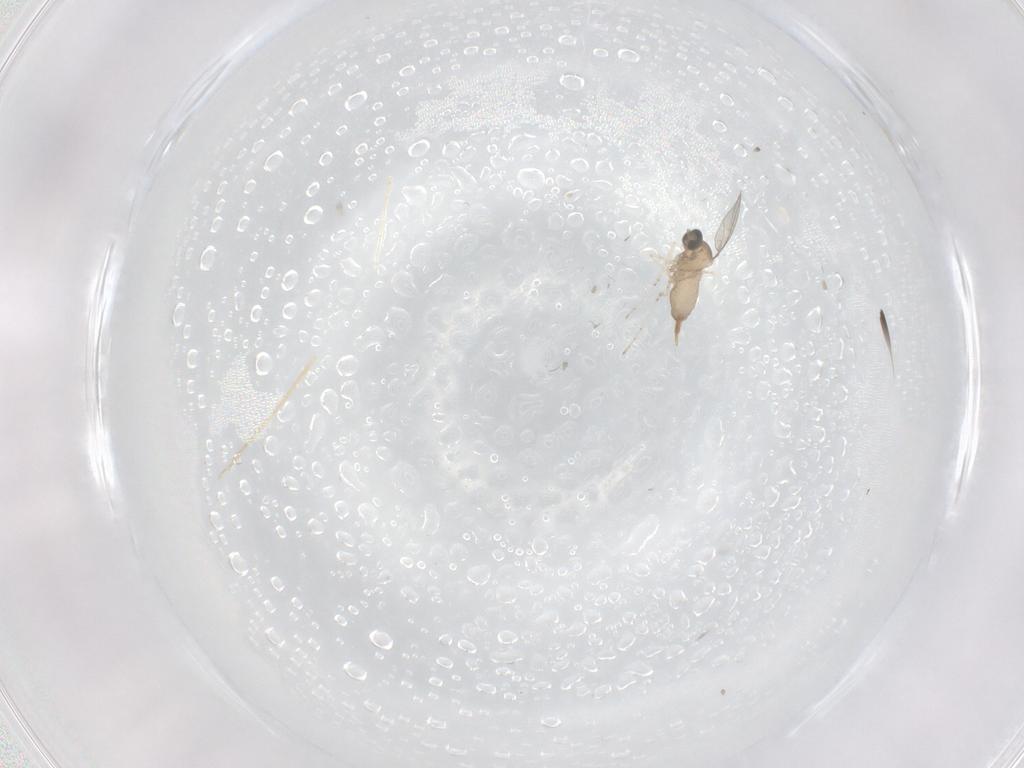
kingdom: Animalia
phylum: Arthropoda
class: Insecta
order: Diptera
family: Cecidomyiidae
